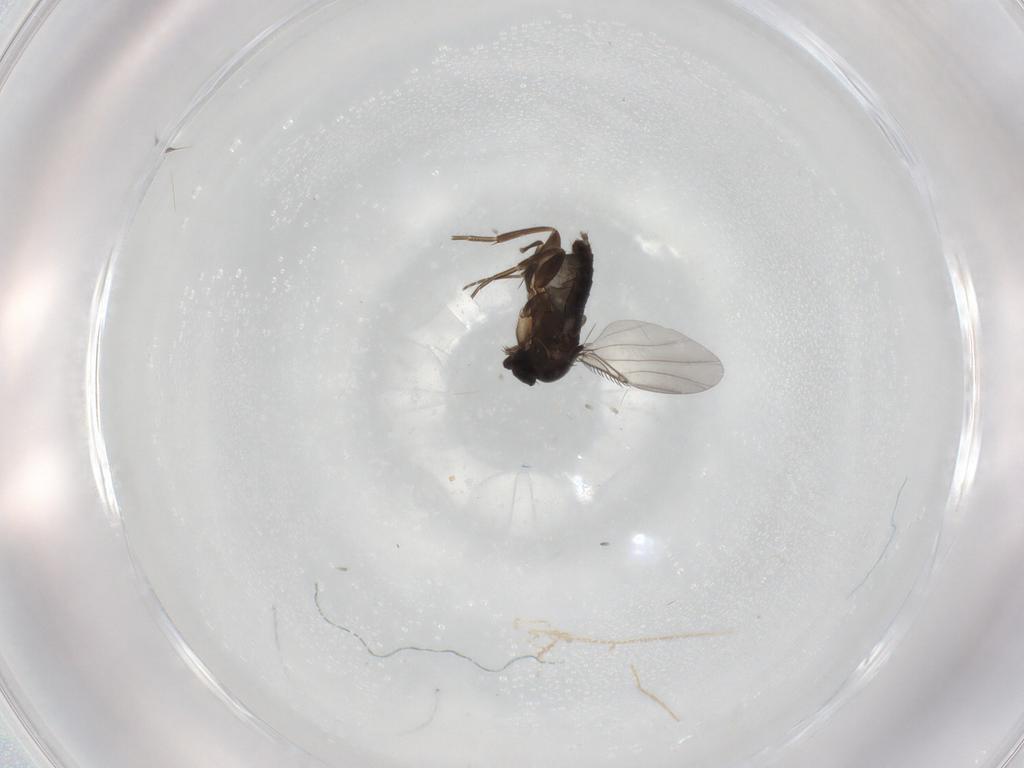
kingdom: Animalia
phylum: Arthropoda
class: Insecta
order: Diptera
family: Phoridae
